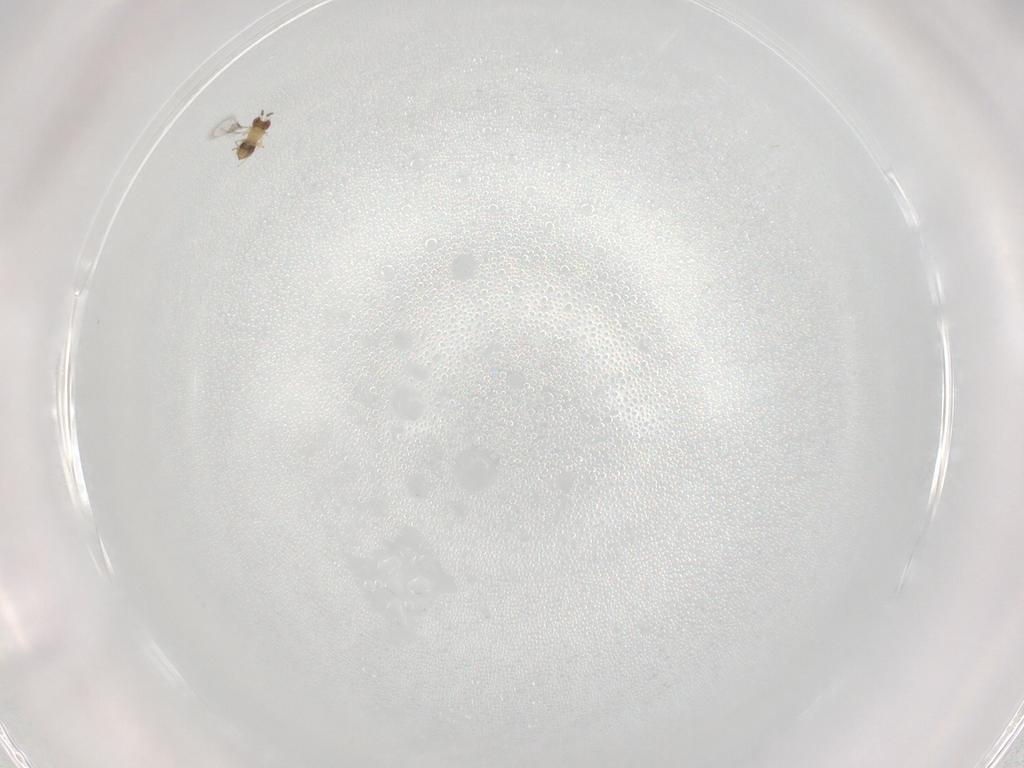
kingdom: Animalia
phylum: Arthropoda
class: Insecta
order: Hymenoptera
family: Trichogrammatidae
